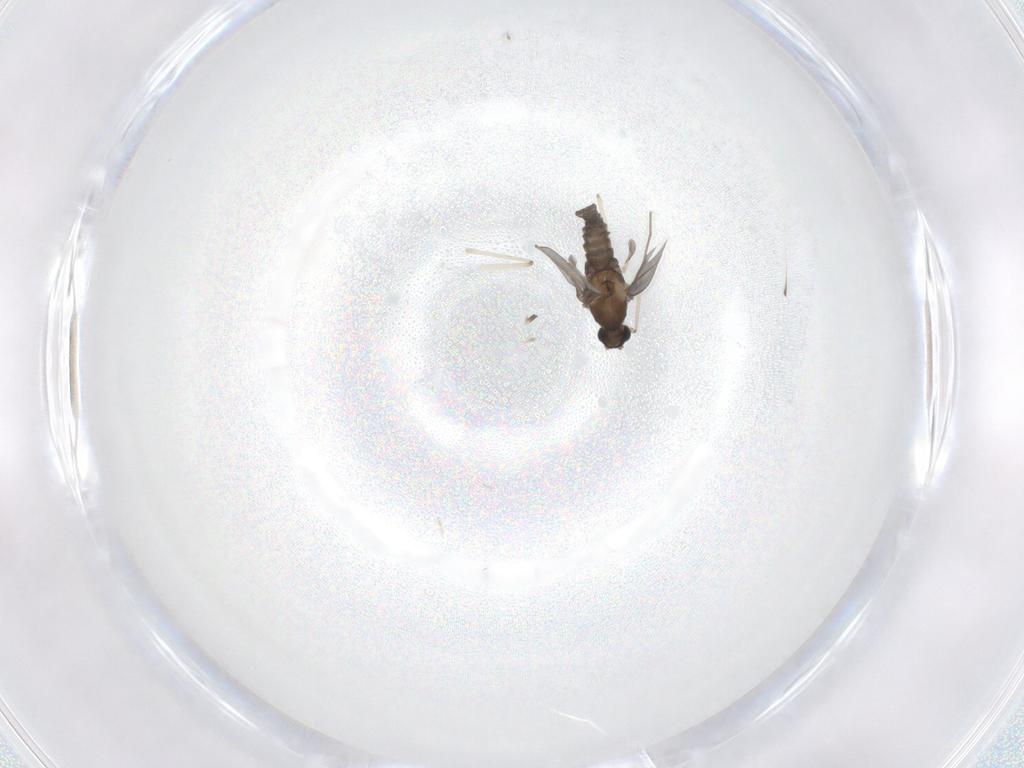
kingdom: Animalia
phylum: Arthropoda
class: Insecta
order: Diptera
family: Cecidomyiidae
